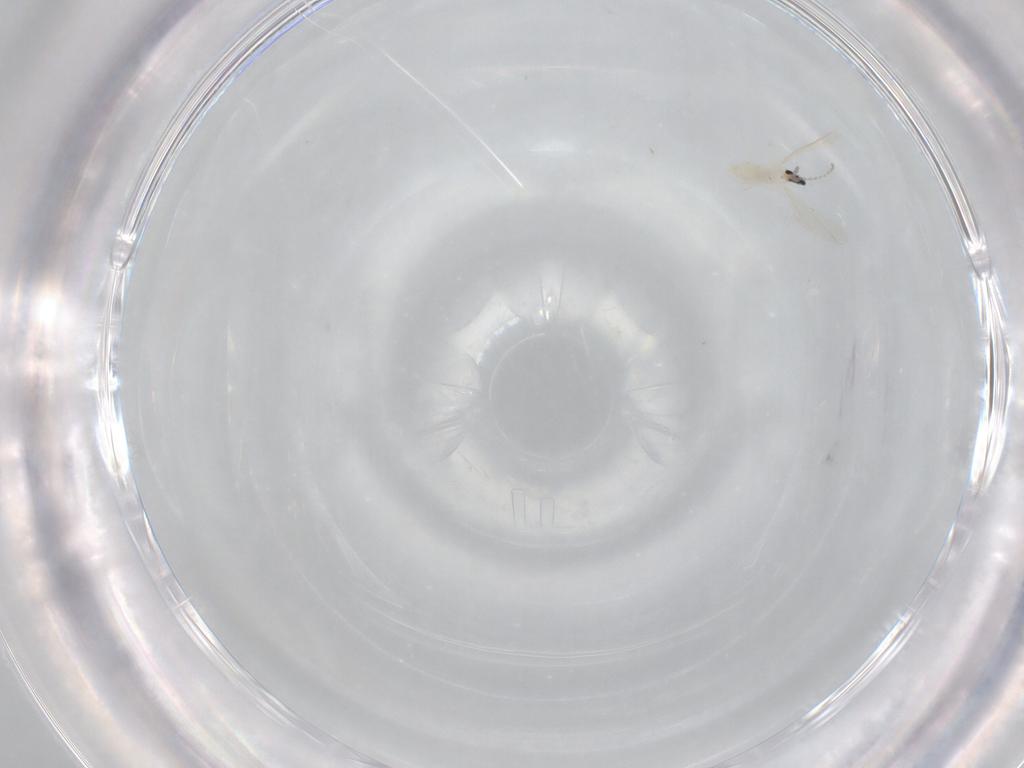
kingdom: Animalia
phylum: Arthropoda
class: Insecta
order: Diptera
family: Cecidomyiidae
